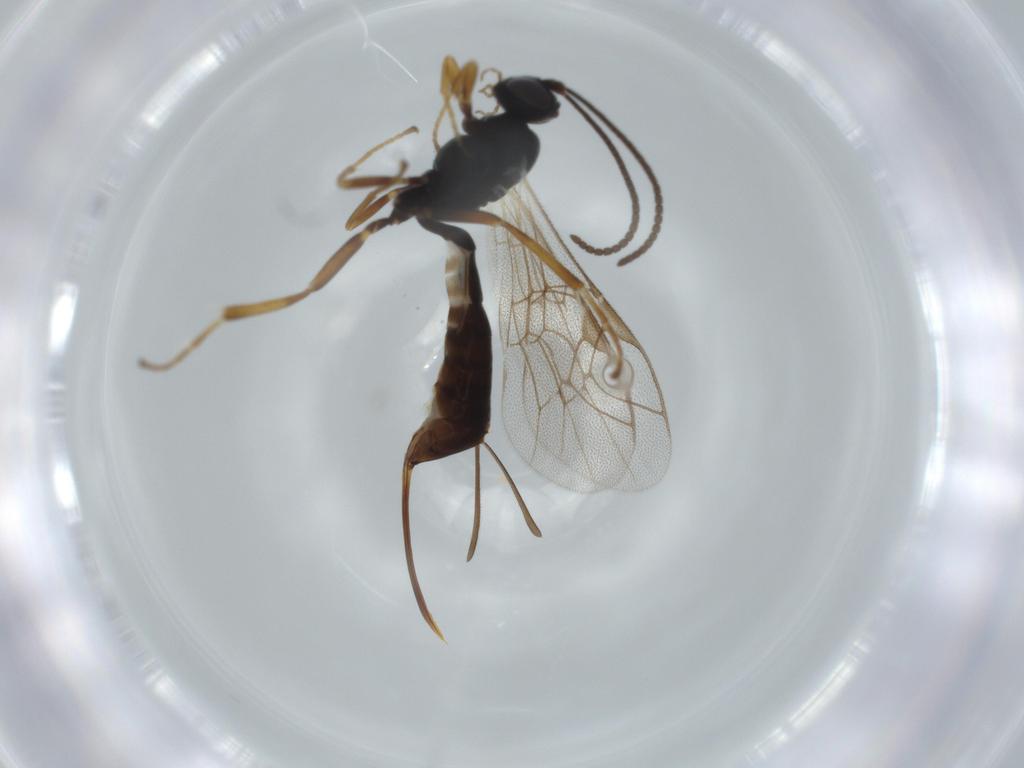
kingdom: Animalia
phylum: Arthropoda
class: Insecta
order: Hymenoptera
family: Ichneumonidae
